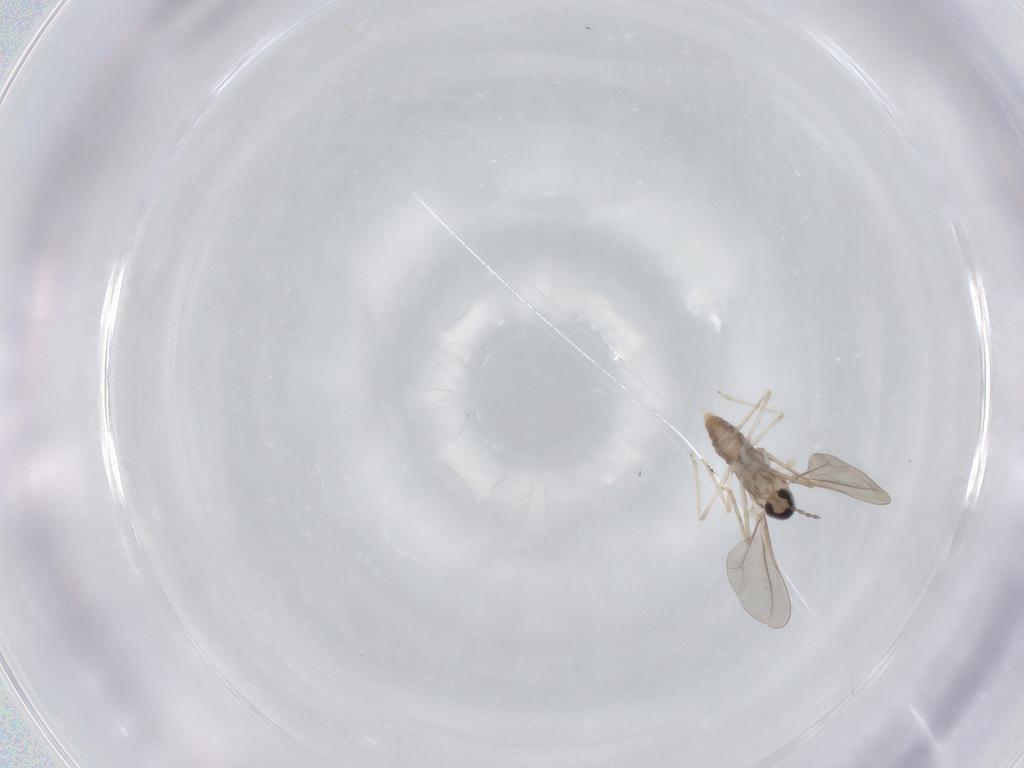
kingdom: Animalia
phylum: Arthropoda
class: Insecta
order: Diptera
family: Cecidomyiidae
